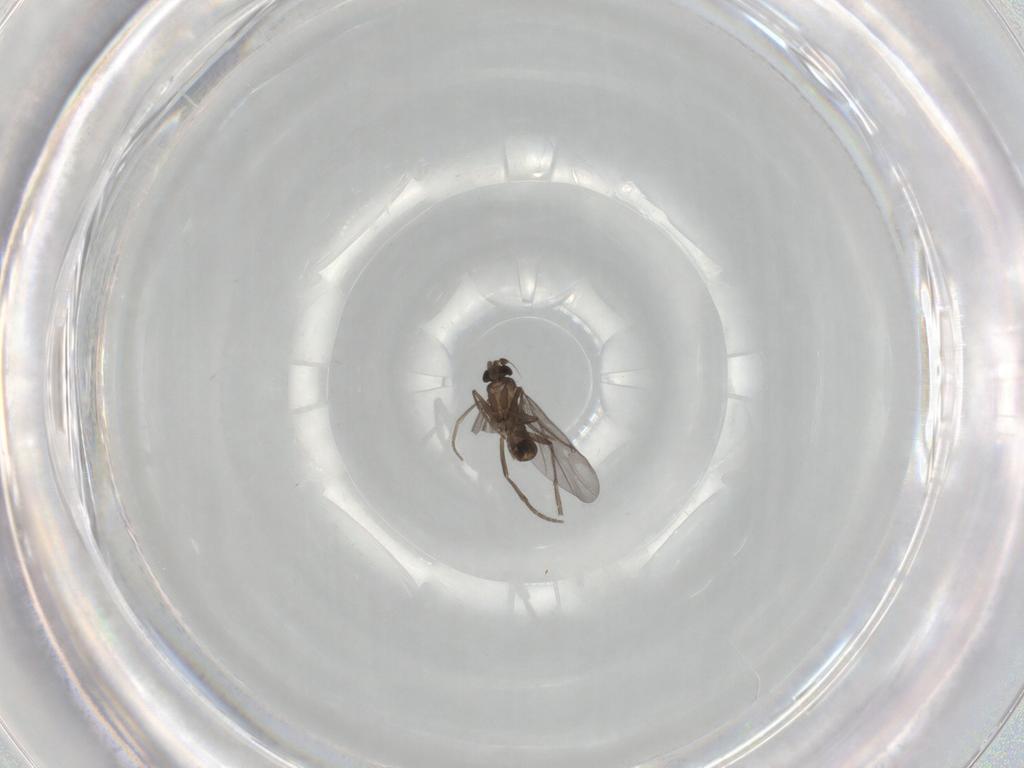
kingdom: Animalia
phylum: Arthropoda
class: Insecta
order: Diptera
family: Phoridae
